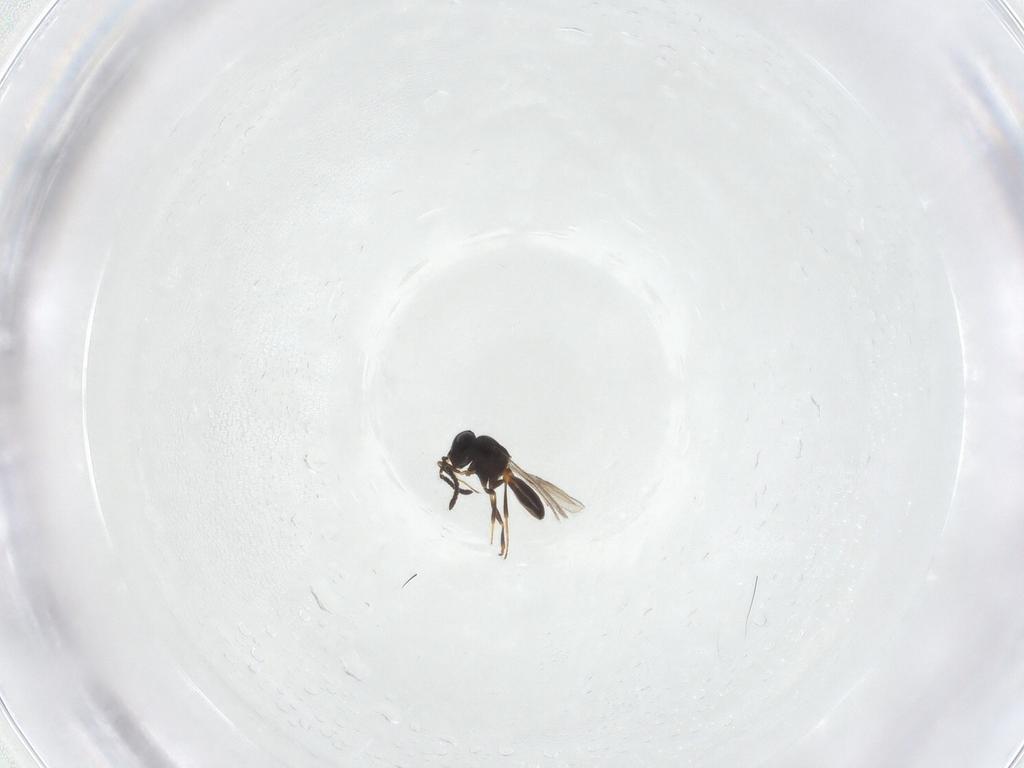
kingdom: Animalia
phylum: Arthropoda
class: Insecta
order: Hymenoptera
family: Scelionidae
